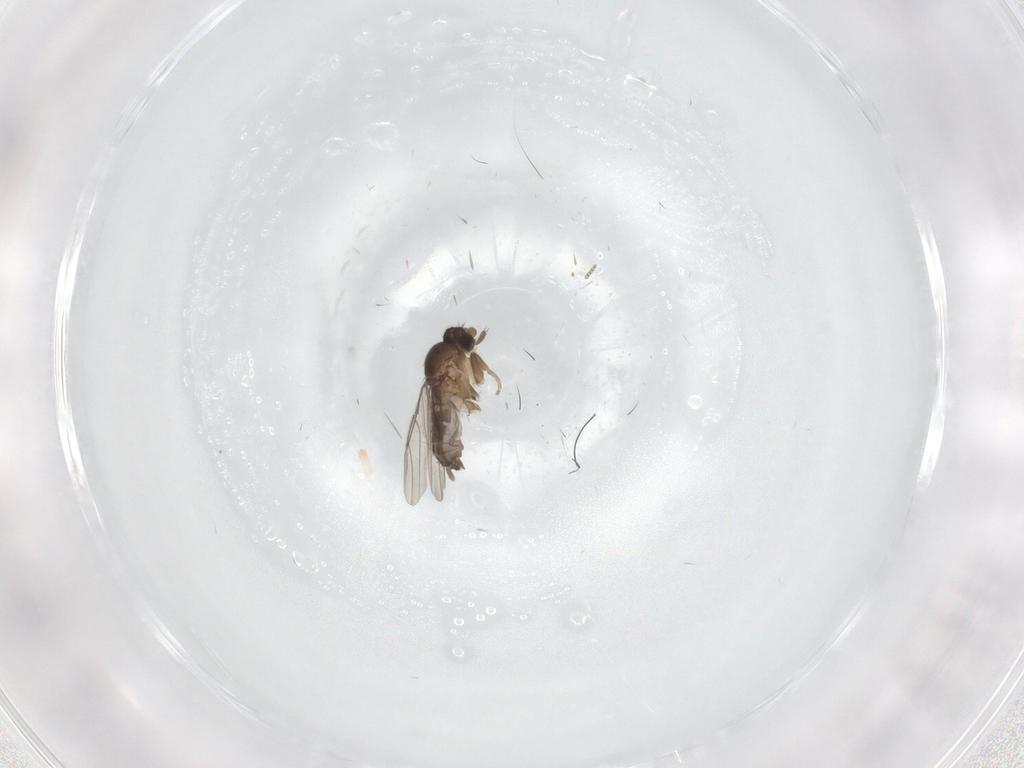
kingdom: Animalia
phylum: Arthropoda
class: Insecta
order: Diptera
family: Phoridae
